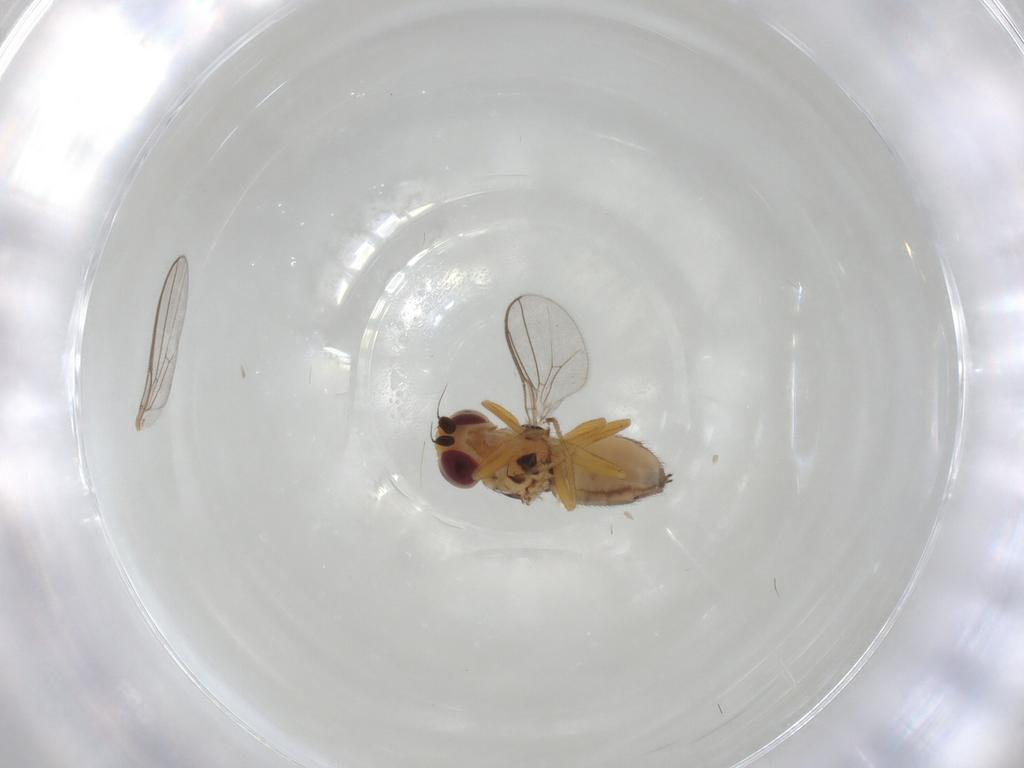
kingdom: Animalia
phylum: Arthropoda
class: Insecta
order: Diptera
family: Chloropidae
